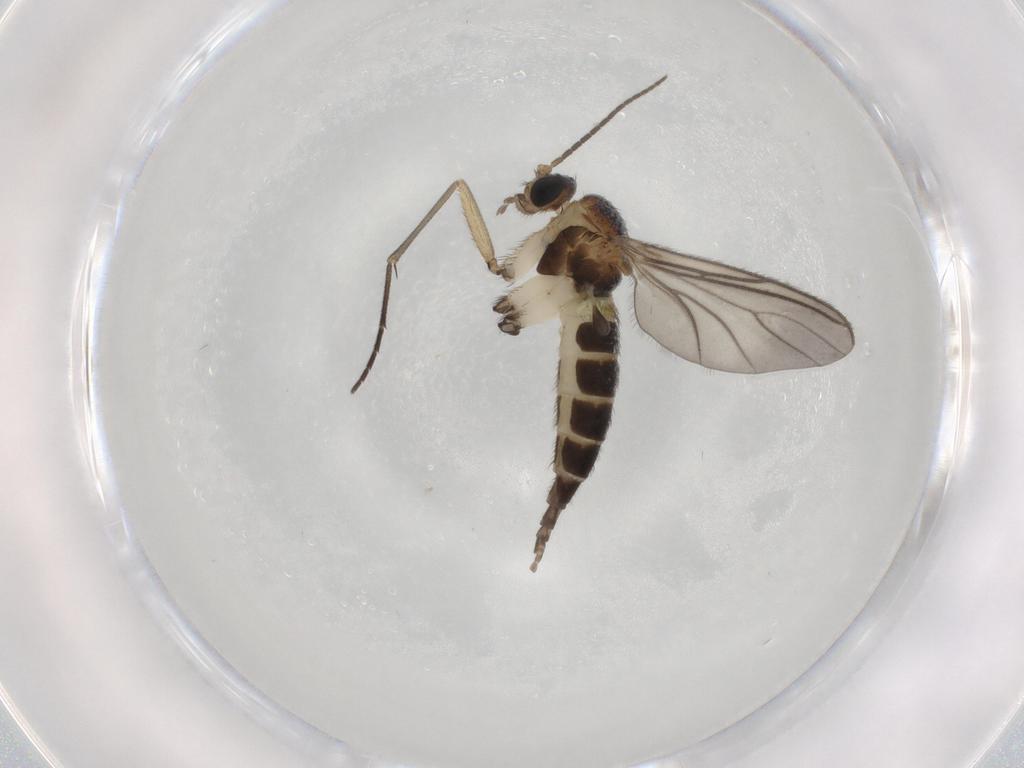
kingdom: Animalia
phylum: Arthropoda
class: Insecta
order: Diptera
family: Sciaridae
